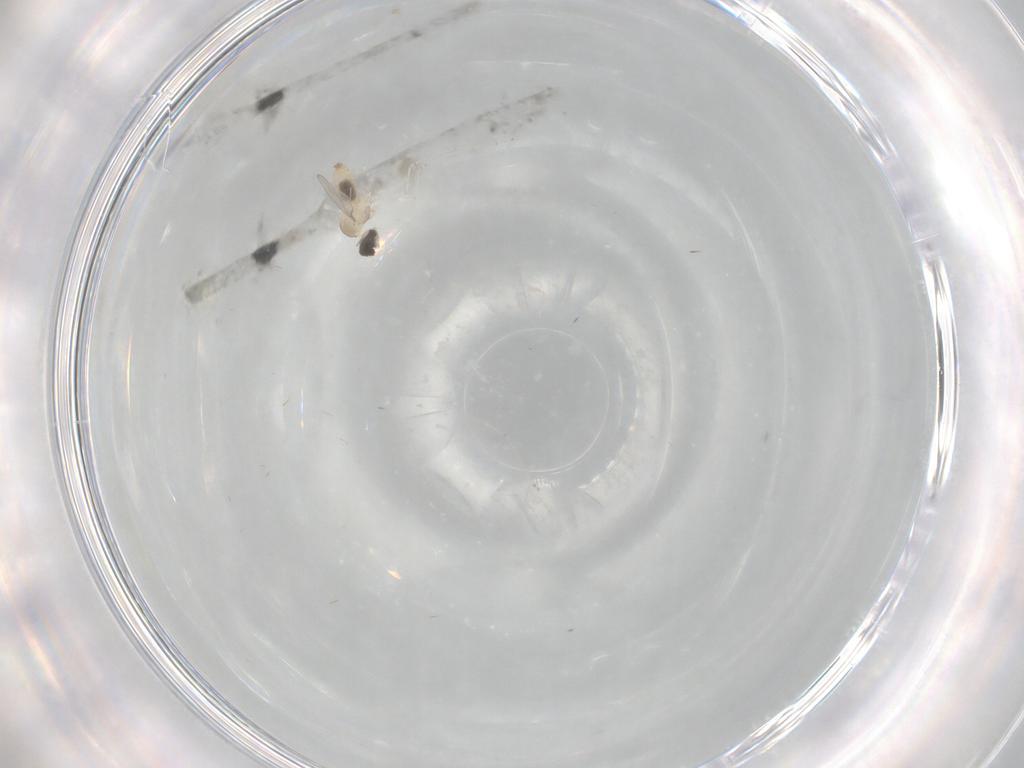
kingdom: Animalia
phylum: Arthropoda
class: Insecta
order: Diptera
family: Cecidomyiidae
